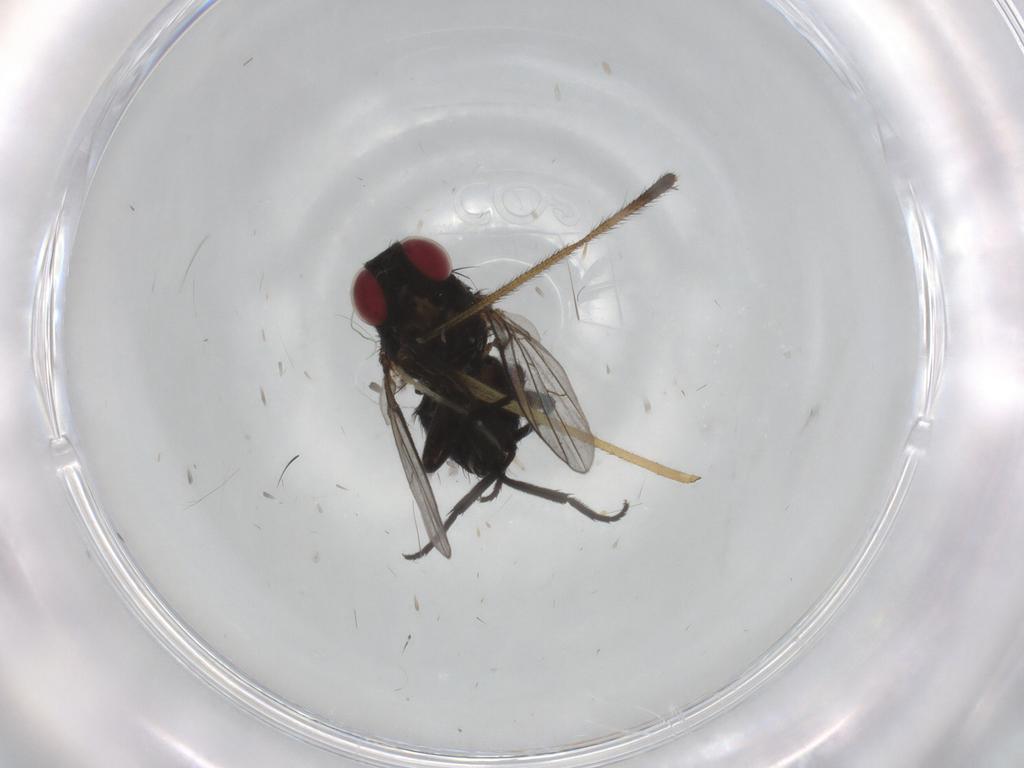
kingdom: Animalia
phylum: Arthropoda
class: Insecta
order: Diptera
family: Agromyzidae
